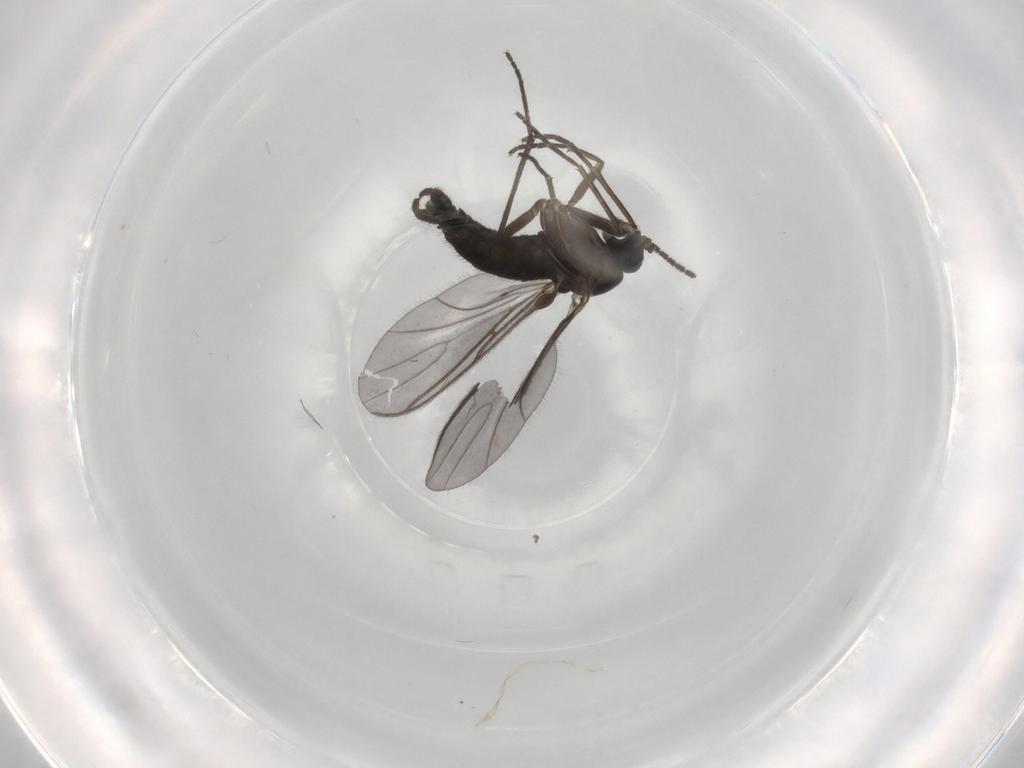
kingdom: Animalia
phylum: Arthropoda
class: Insecta
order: Diptera
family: Sciaridae
